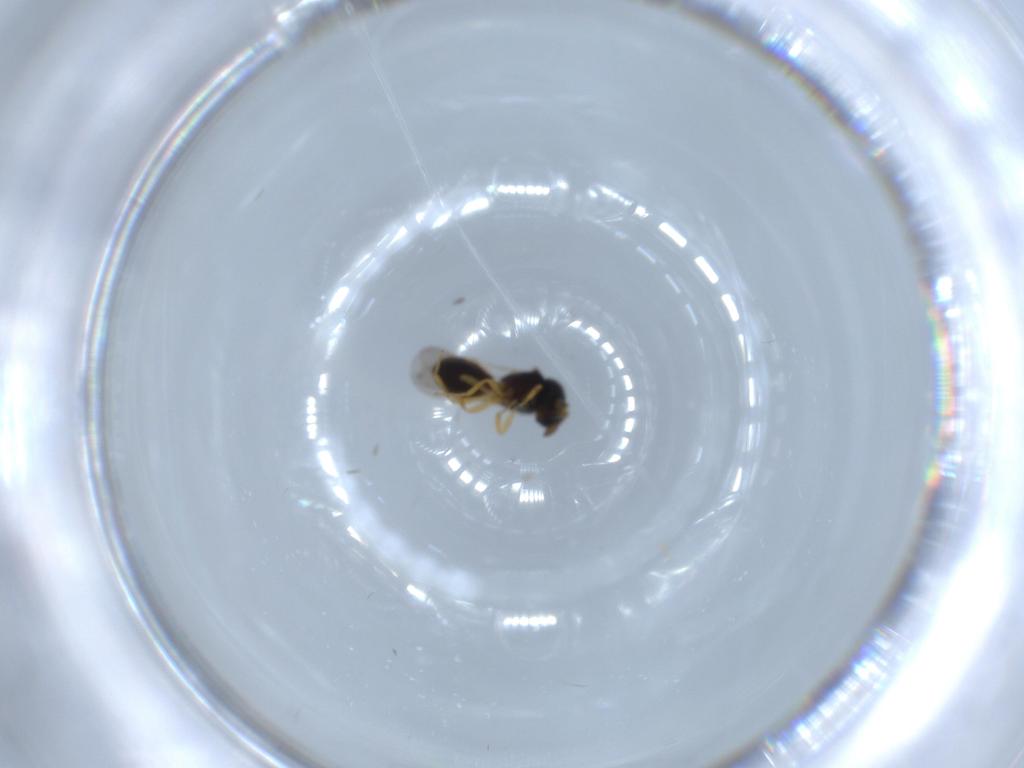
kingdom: Animalia
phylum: Arthropoda
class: Insecta
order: Hymenoptera
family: Scelionidae
